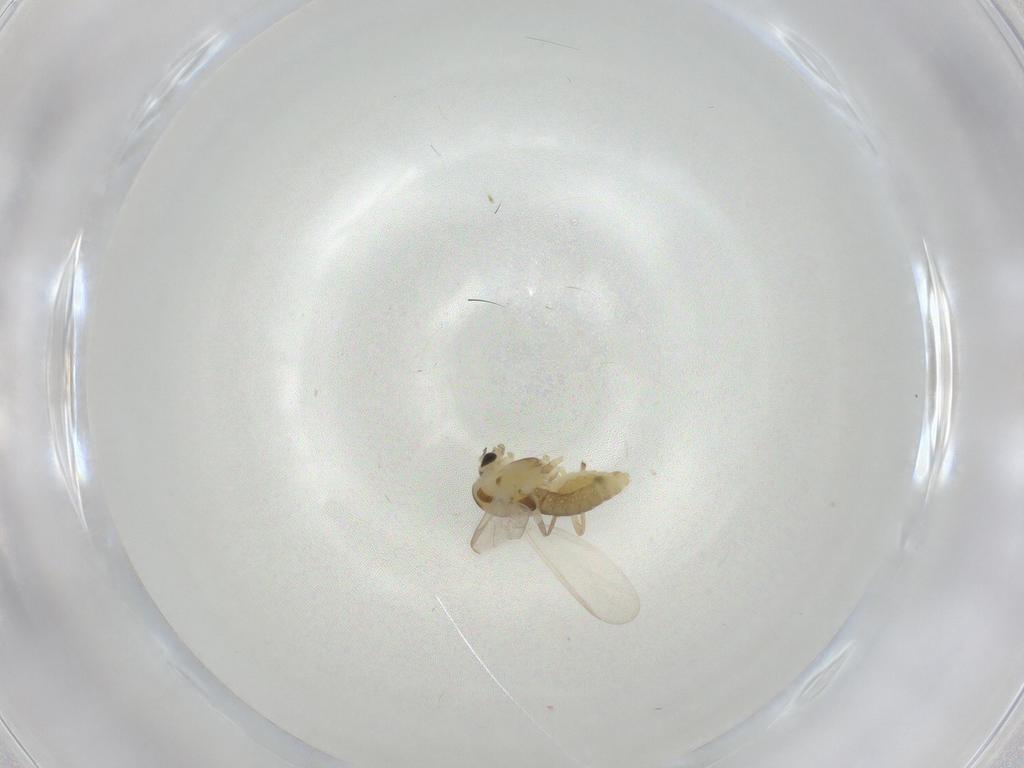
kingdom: Animalia
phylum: Arthropoda
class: Insecta
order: Diptera
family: Chironomidae
